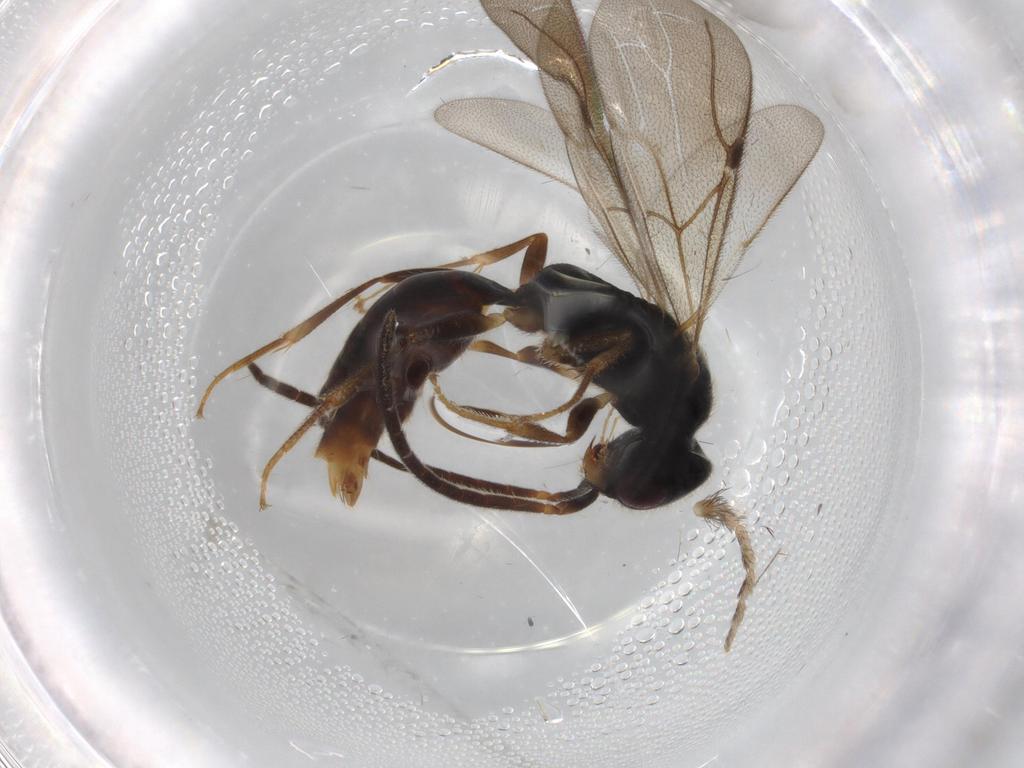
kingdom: Animalia
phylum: Arthropoda
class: Insecta
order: Hymenoptera
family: Bethylidae
